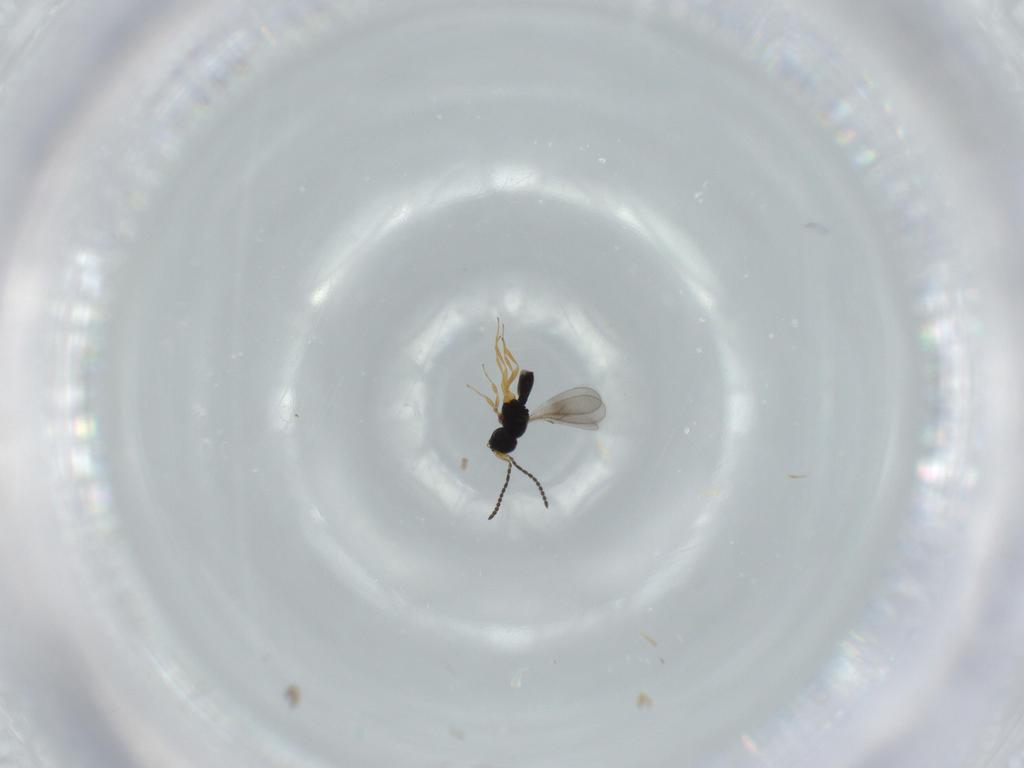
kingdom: Animalia
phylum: Arthropoda
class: Insecta
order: Hymenoptera
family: Scelionidae
